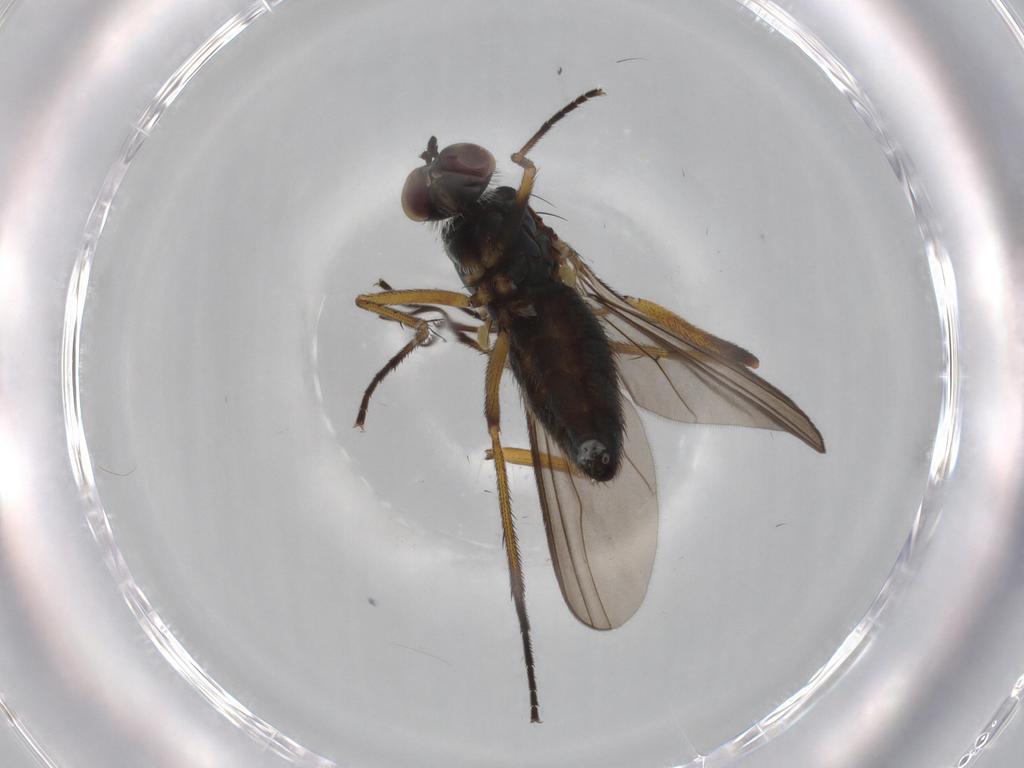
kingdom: Animalia
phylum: Arthropoda
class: Insecta
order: Diptera
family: Dolichopodidae
